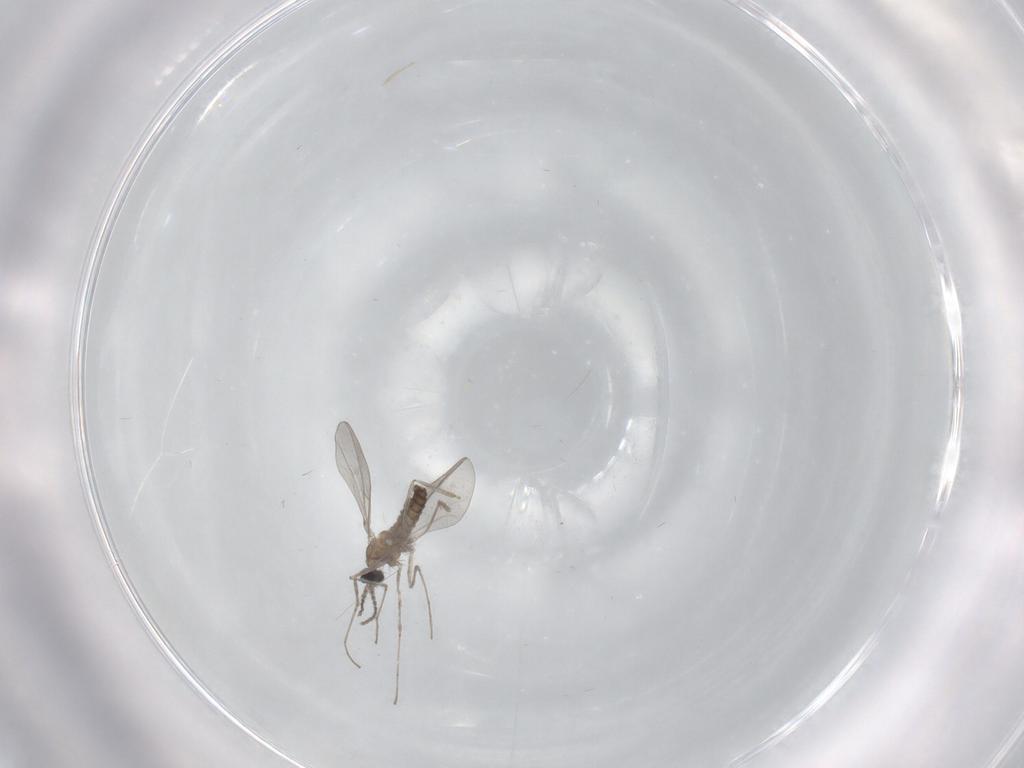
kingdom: Animalia
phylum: Arthropoda
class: Insecta
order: Diptera
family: Cecidomyiidae
